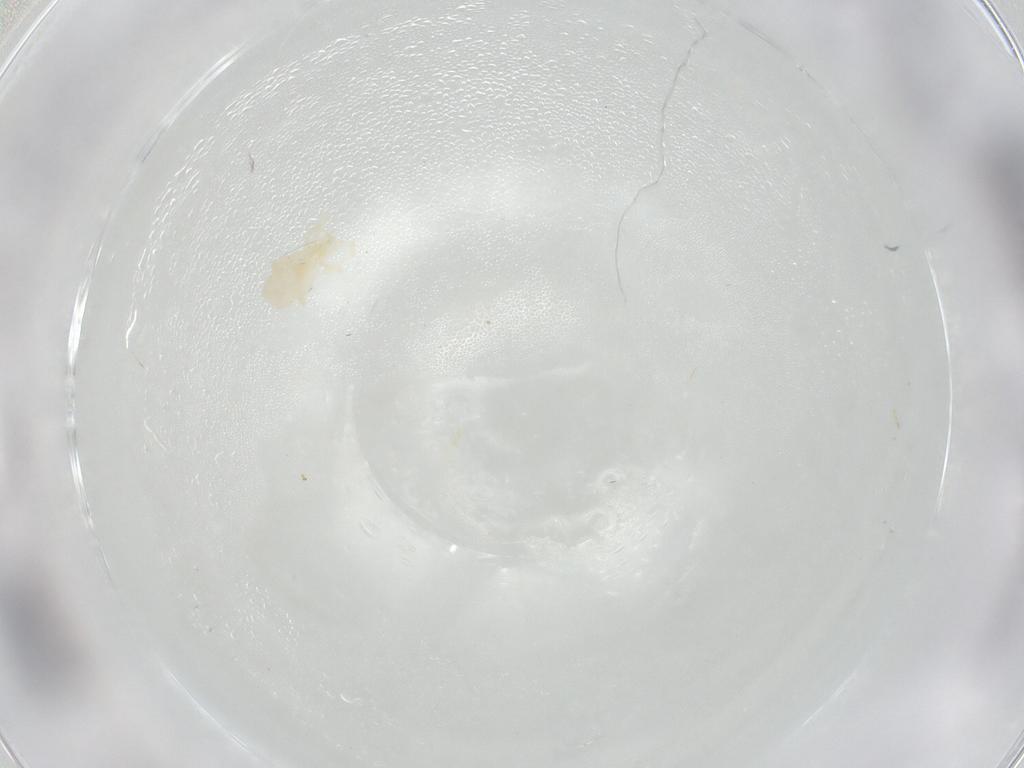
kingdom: Animalia
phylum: Arthropoda
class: Arachnida
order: Trombidiformes
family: Erythraeidae
